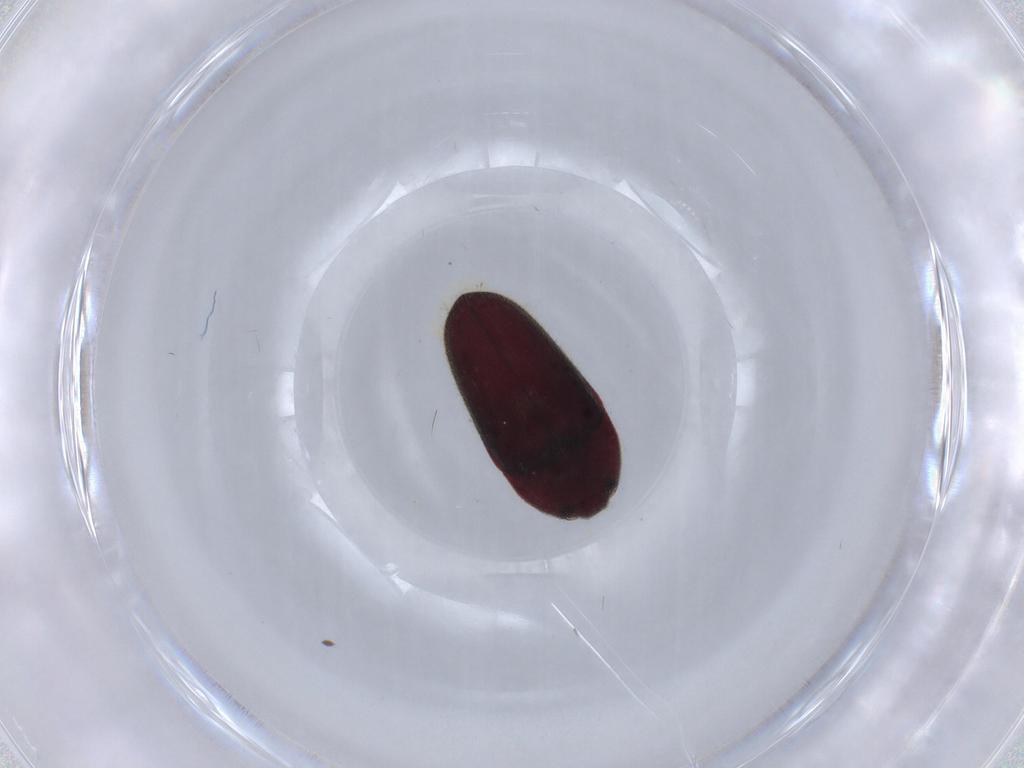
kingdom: Animalia
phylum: Arthropoda
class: Insecta
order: Coleoptera
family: Throscidae
